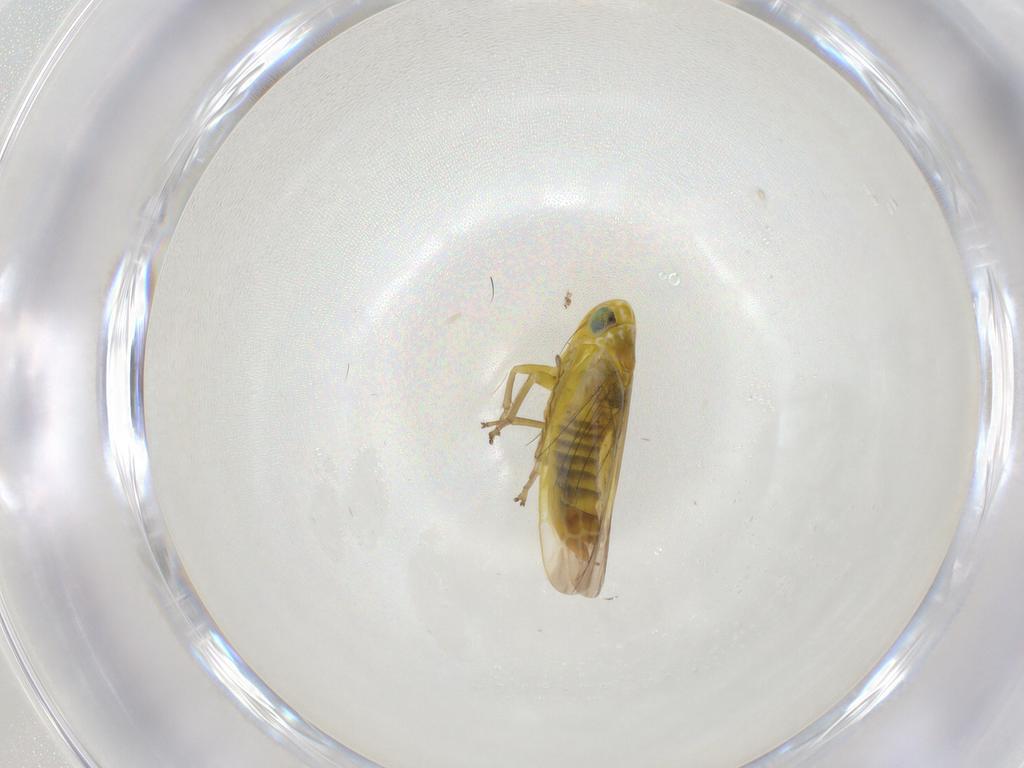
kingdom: Animalia
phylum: Arthropoda
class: Insecta
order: Hemiptera
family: Cicadellidae
